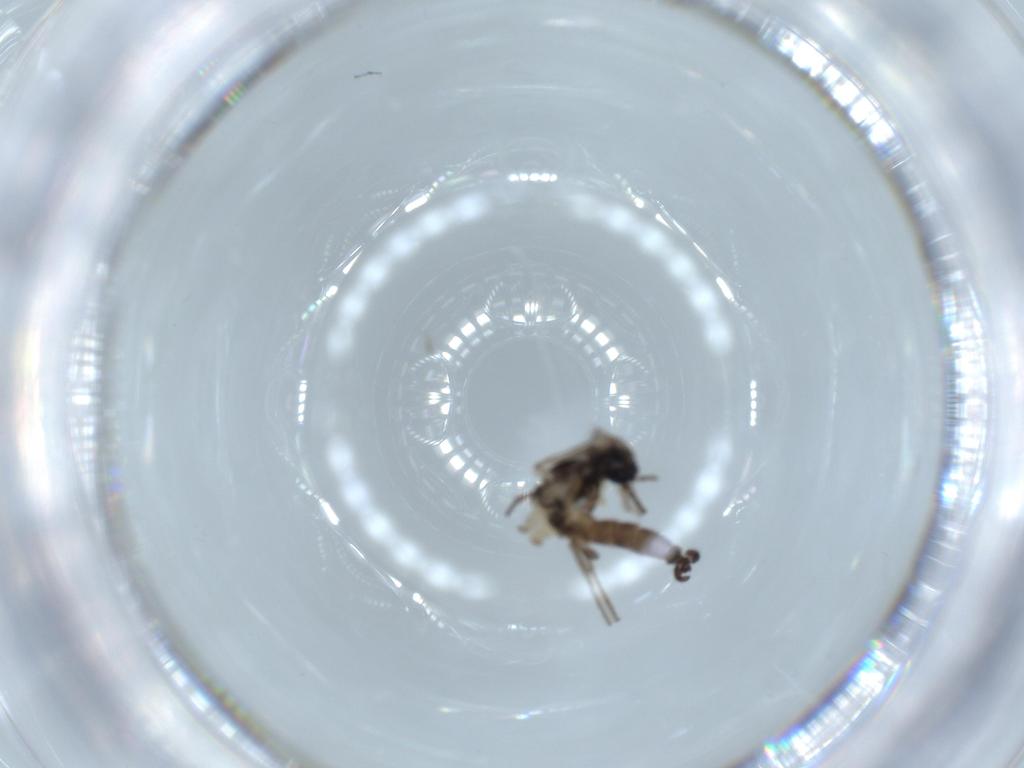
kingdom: Animalia
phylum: Arthropoda
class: Insecta
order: Diptera
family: Sciaridae
